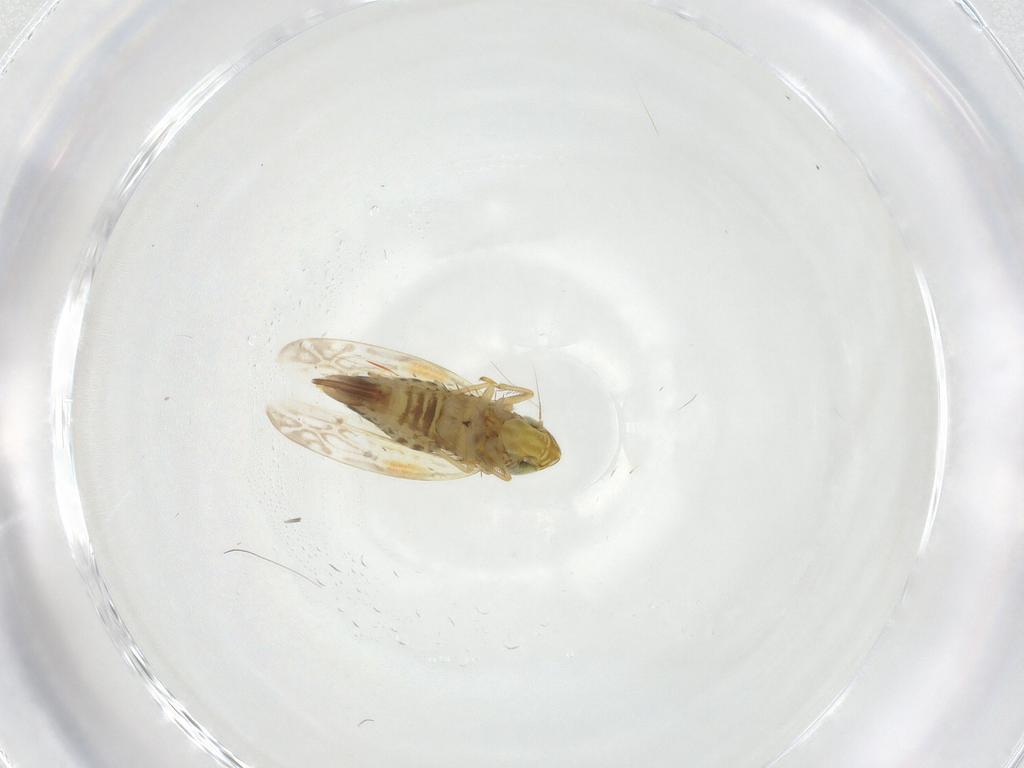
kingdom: Animalia
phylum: Arthropoda
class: Insecta
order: Hemiptera
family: Cicadellidae
